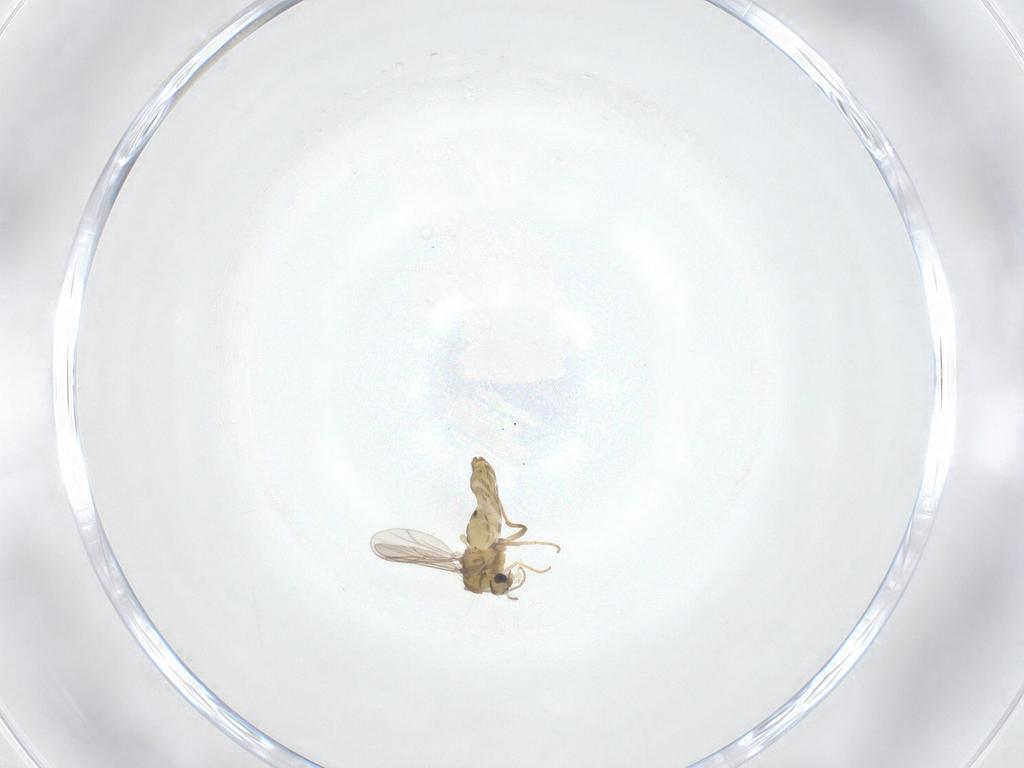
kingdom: Animalia
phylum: Arthropoda
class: Insecta
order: Diptera
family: Chironomidae
